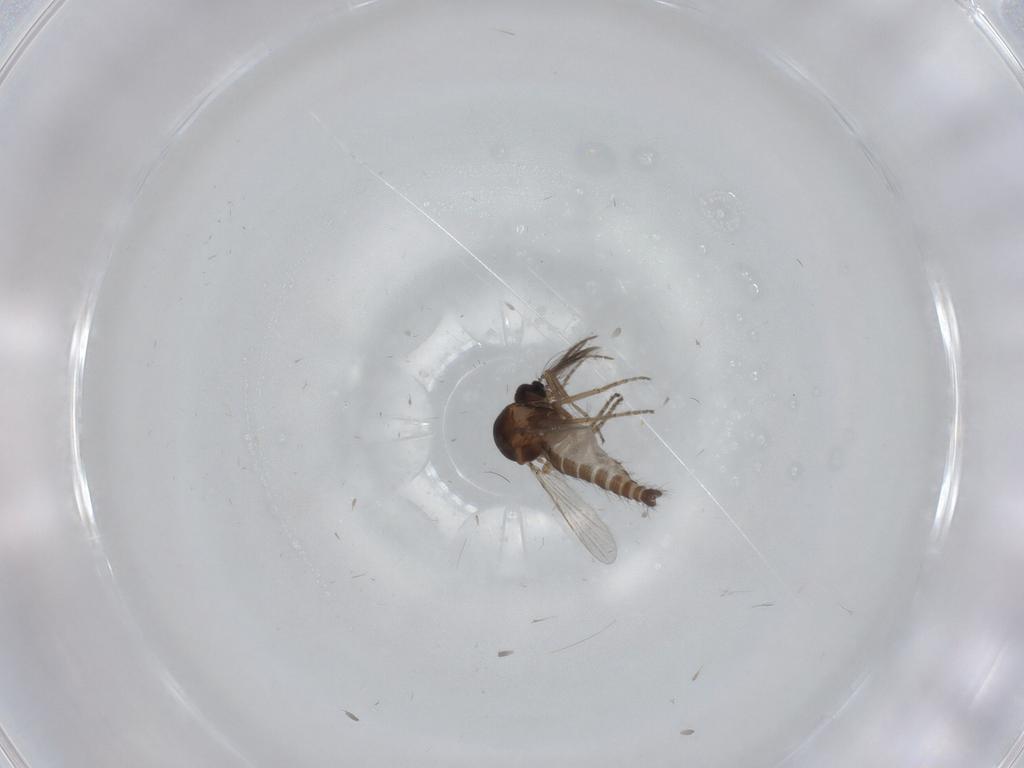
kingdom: Animalia
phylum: Arthropoda
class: Insecta
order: Diptera
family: Ceratopogonidae
